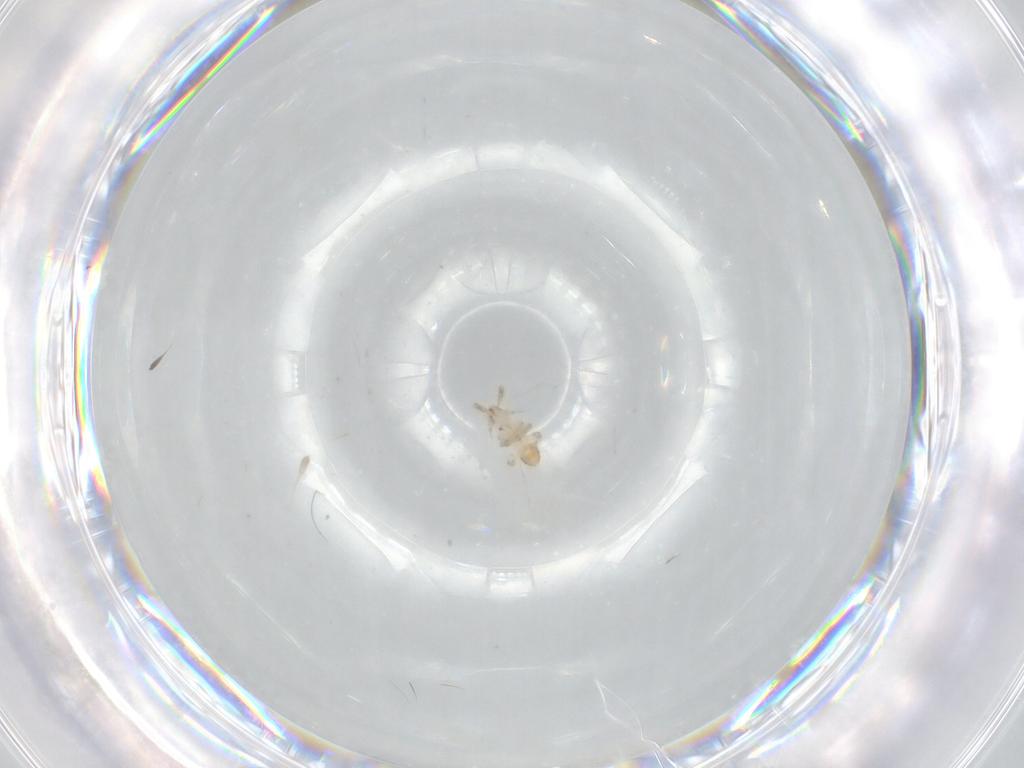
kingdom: Animalia
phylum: Arthropoda
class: Insecta
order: Hemiptera
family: Delphacidae
